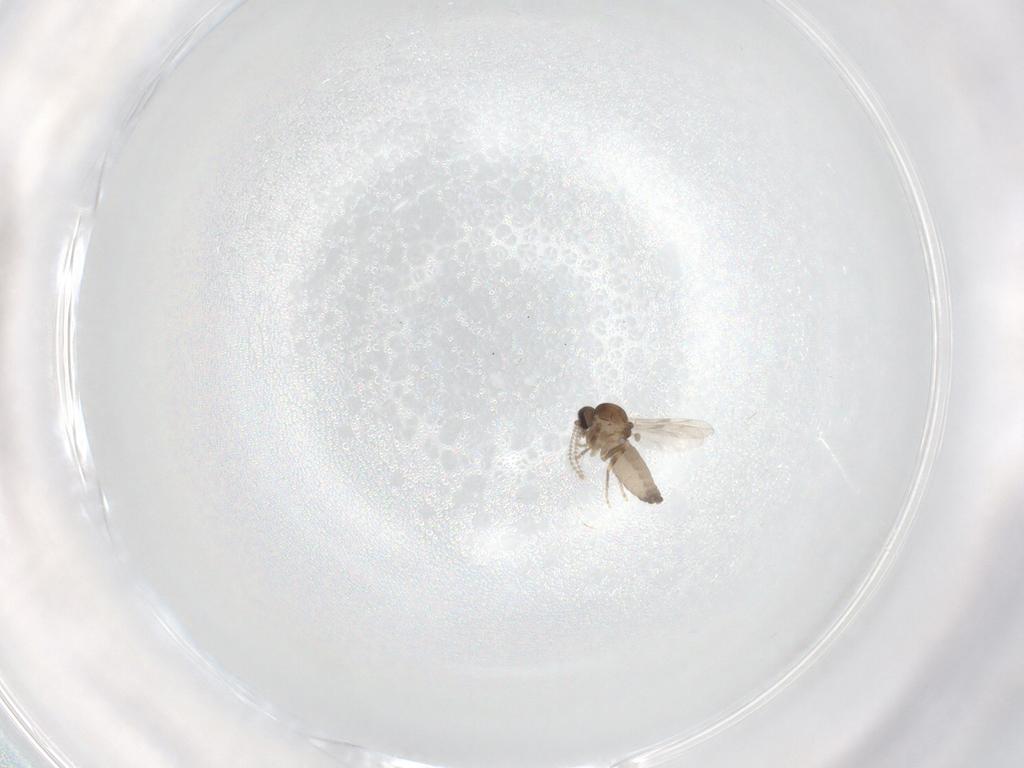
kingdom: Animalia
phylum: Arthropoda
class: Insecta
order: Diptera
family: Ceratopogonidae
